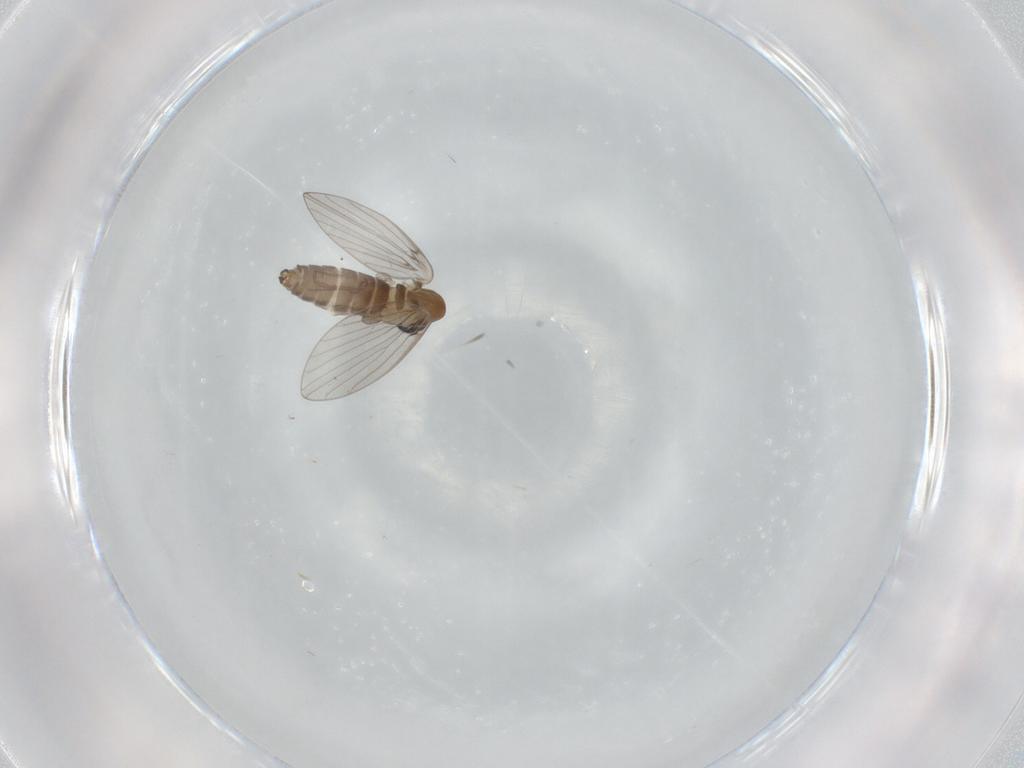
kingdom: Animalia
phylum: Arthropoda
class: Insecta
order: Diptera
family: Psychodidae
